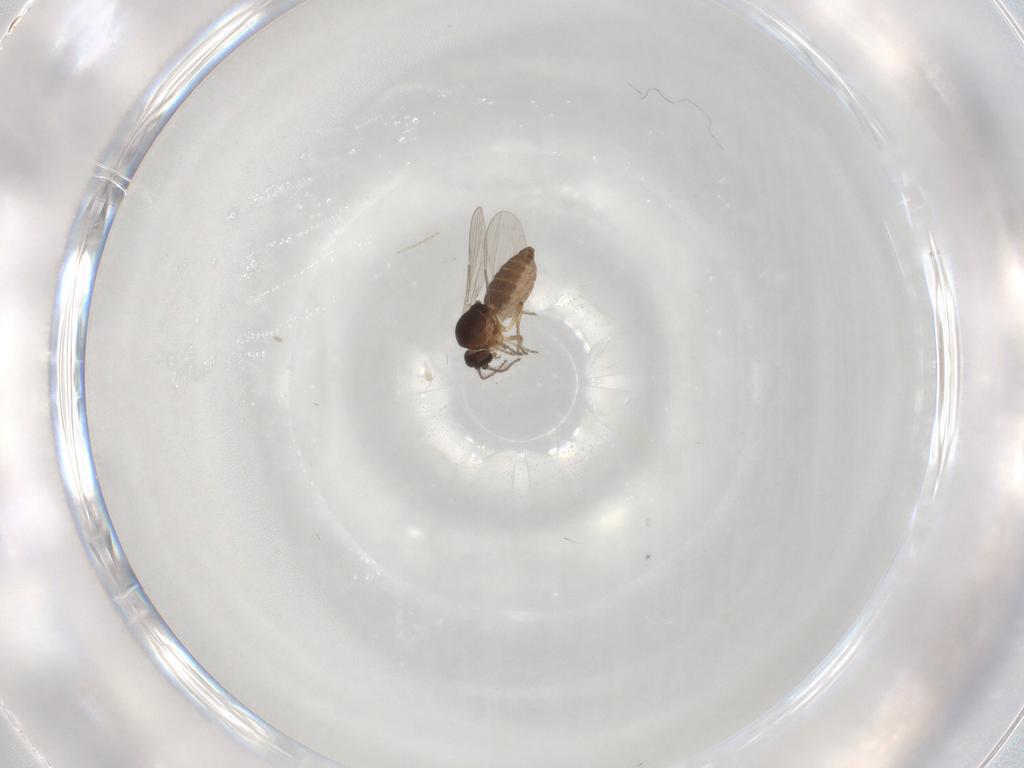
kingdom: Animalia
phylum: Arthropoda
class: Insecta
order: Diptera
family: Ceratopogonidae
